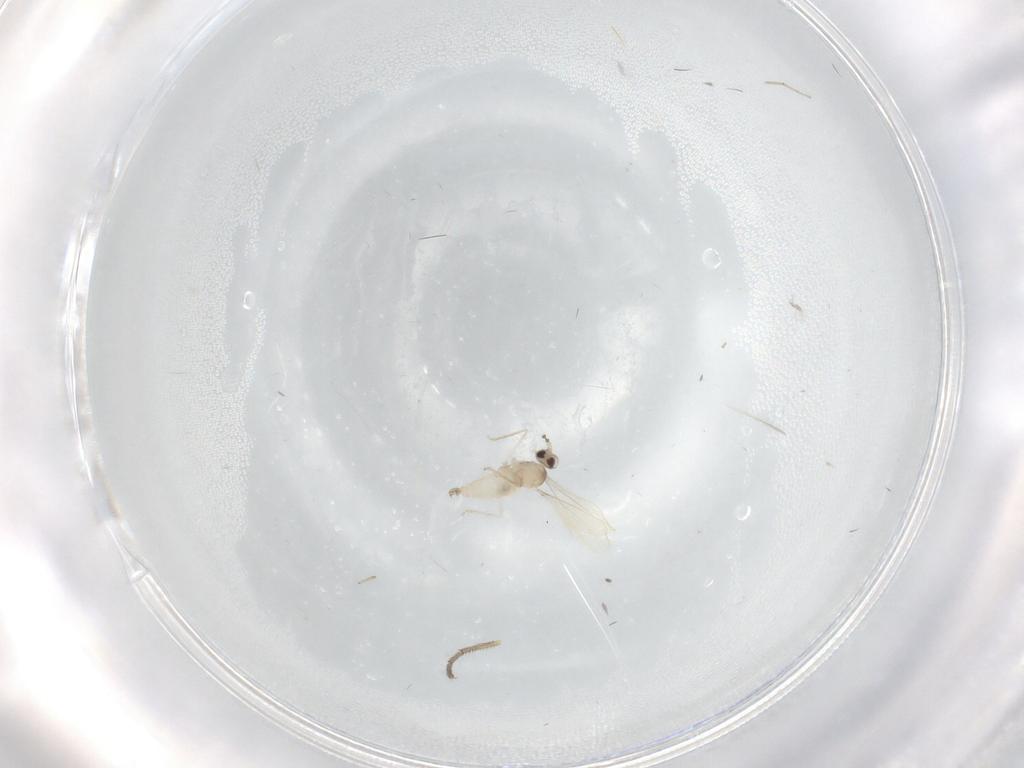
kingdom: Animalia
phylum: Arthropoda
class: Insecta
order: Diptera
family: Clusiidae
